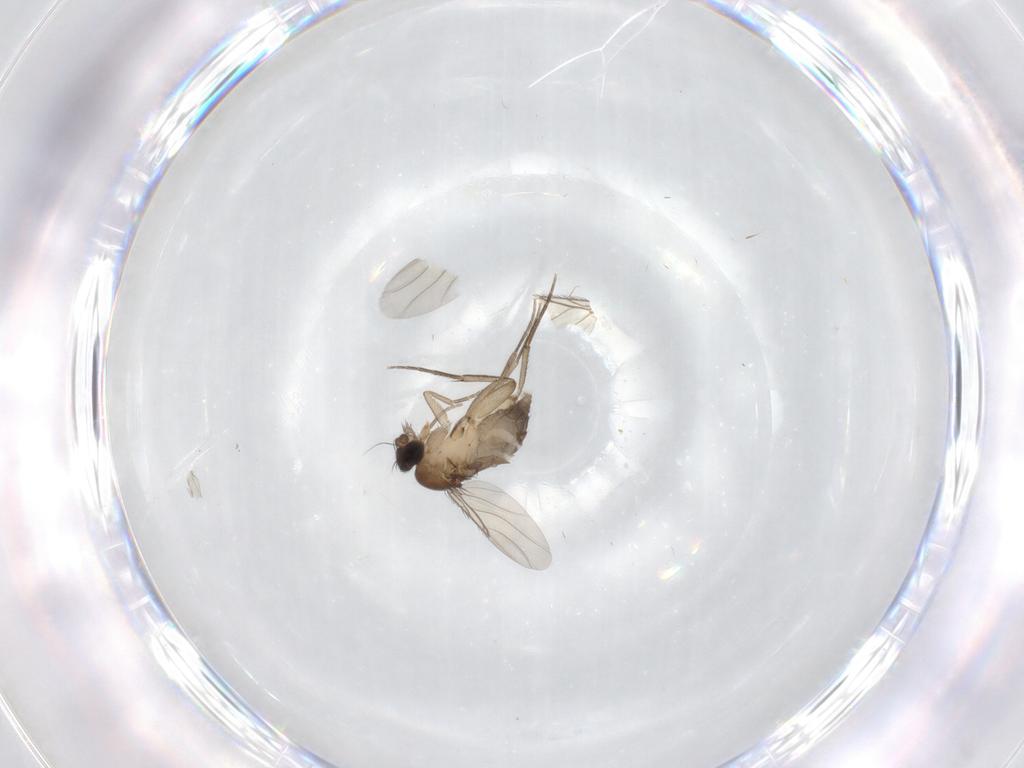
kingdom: Animalia
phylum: Arthropoda
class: Insecta
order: Diptera
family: Phoridae
